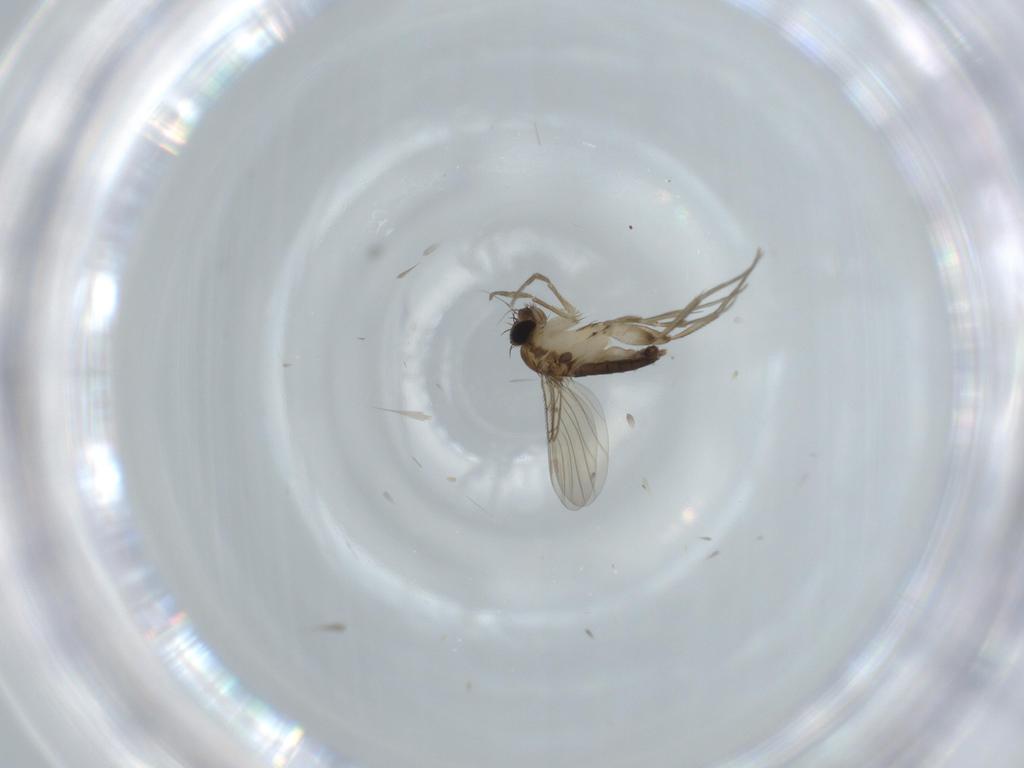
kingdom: Animalia
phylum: Arthropoda
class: Insecta
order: Diptera
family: Phoridae
